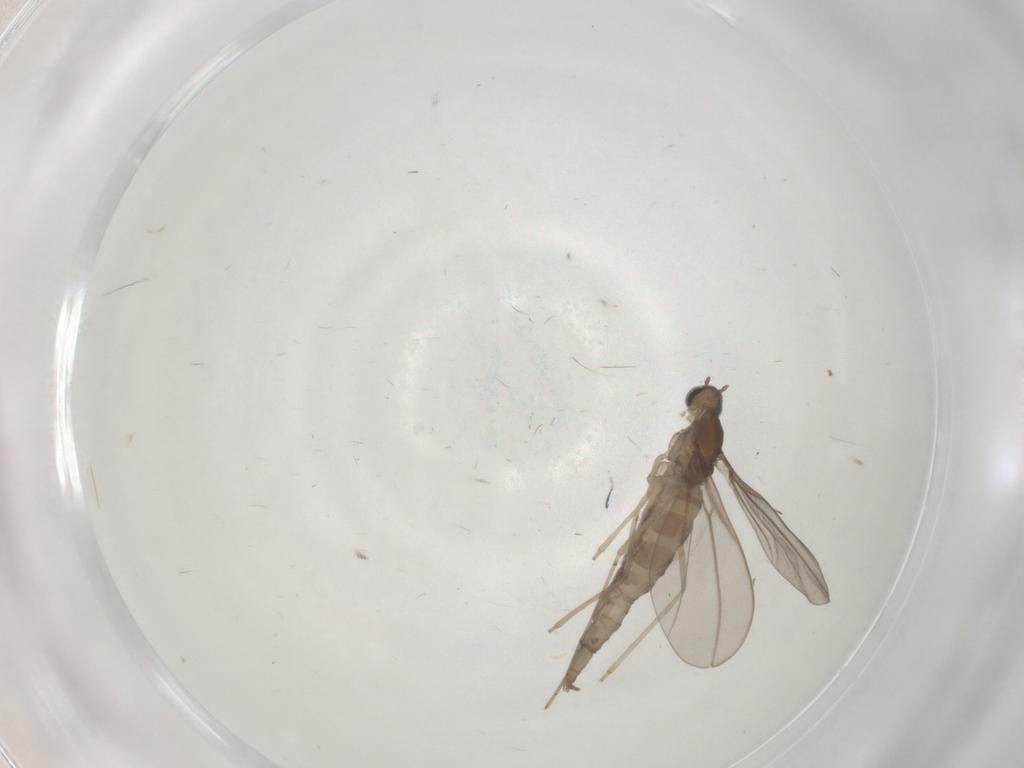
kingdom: Animalia
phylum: Arthropoda
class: Insecta
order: Diptera
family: Cecidomyiidae
